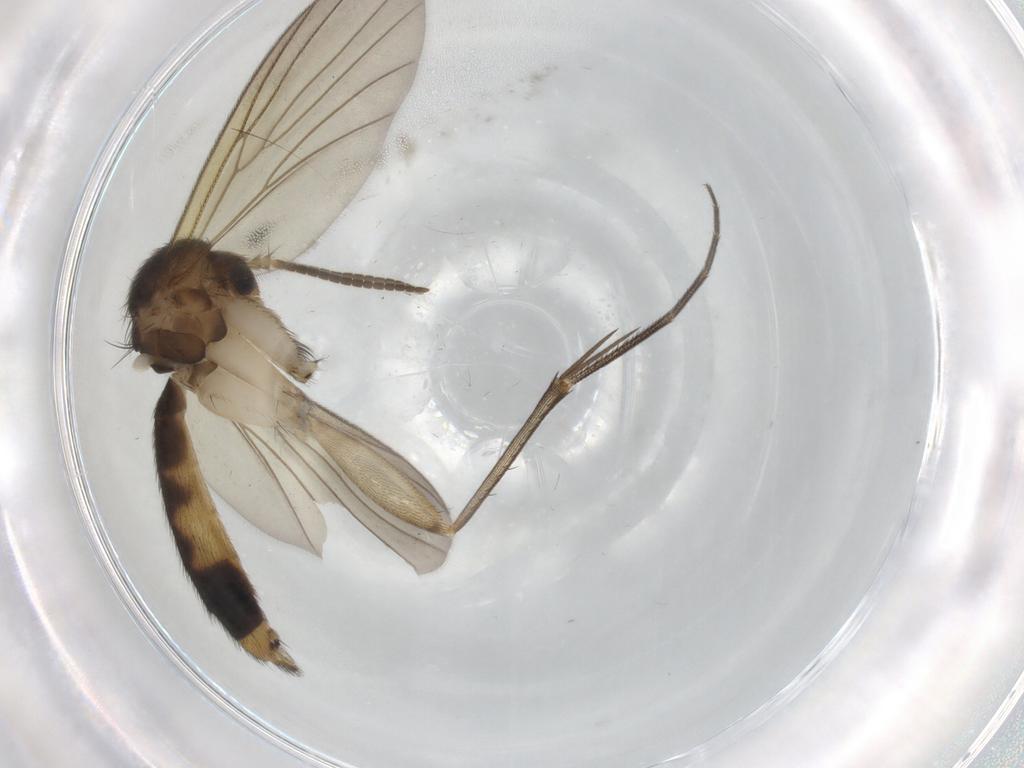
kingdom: Animalia
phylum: Arthropoda
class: Insecta
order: Diptera
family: Mycetophilidae
